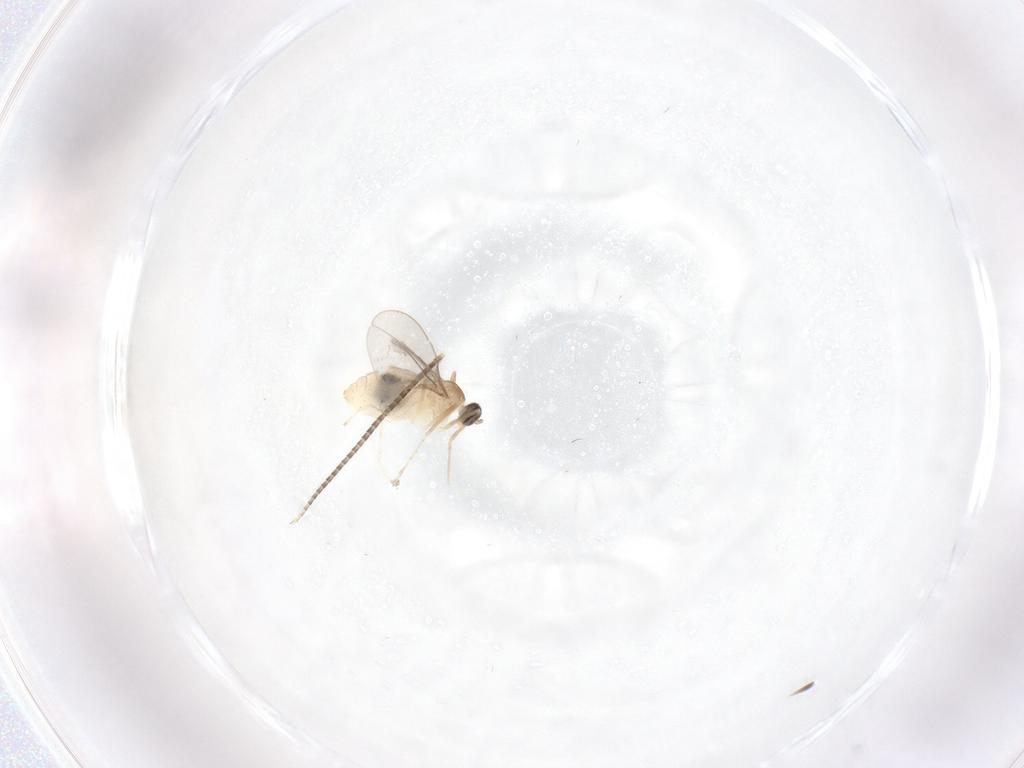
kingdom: Animalia
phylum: Arthropoda
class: Insecta
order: Diptera
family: Cecidomyiidae
